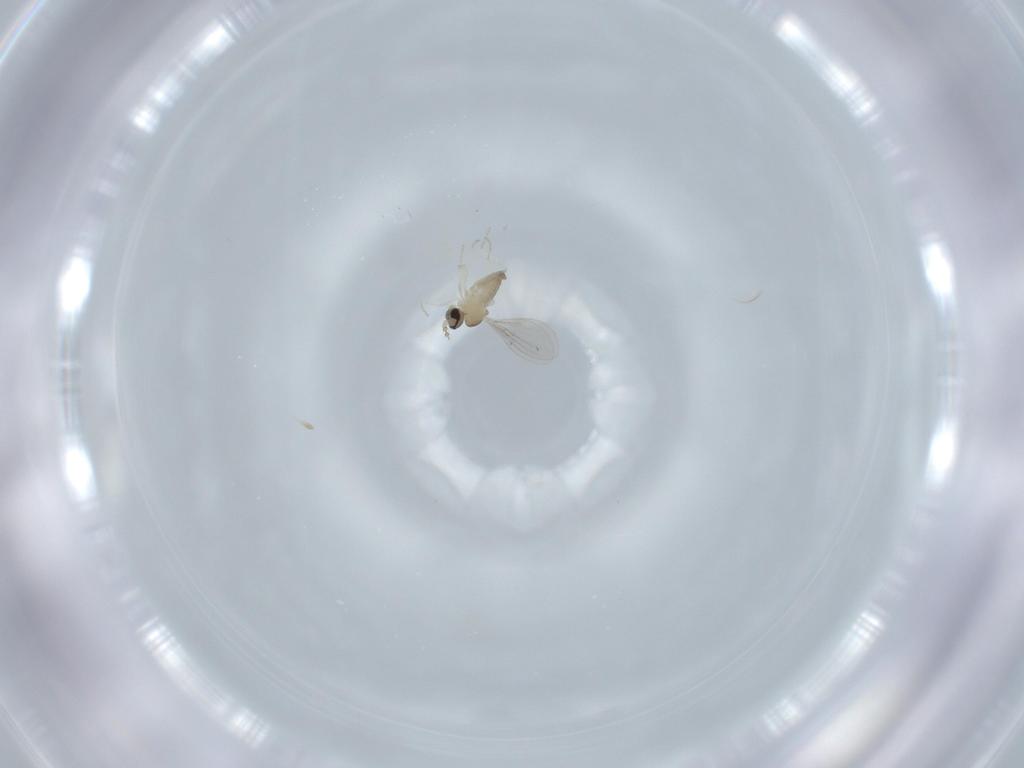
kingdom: Animalia
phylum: Arthropoda
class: Insecta
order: Diptera
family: Cecidomyiidae
